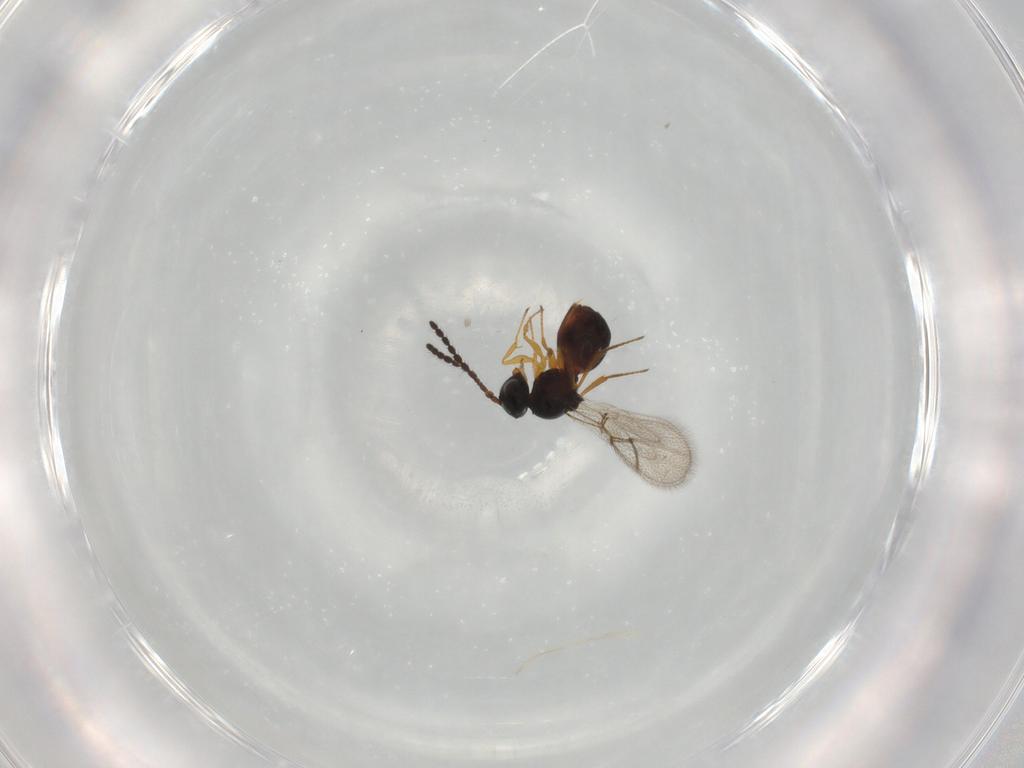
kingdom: Animalia
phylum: Arthropoda
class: Insecta
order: Hymenoptera
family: Figitidae
